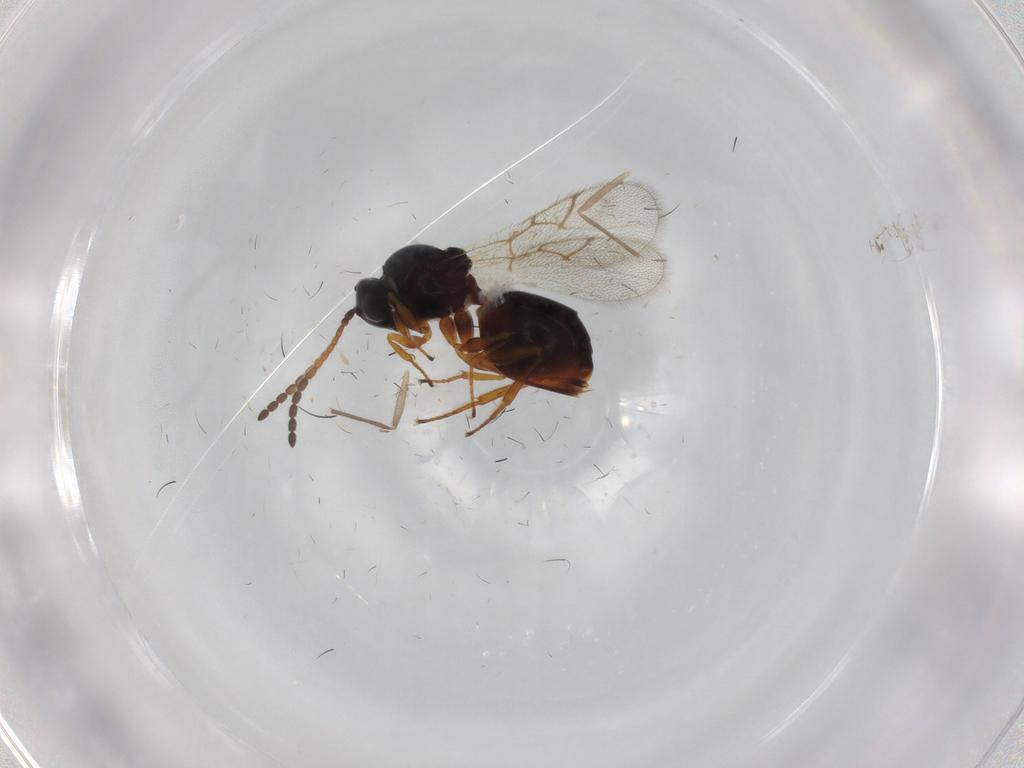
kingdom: Animalia
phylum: Arthropoda
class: Insecta
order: Hymenoptera
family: Figitidae
